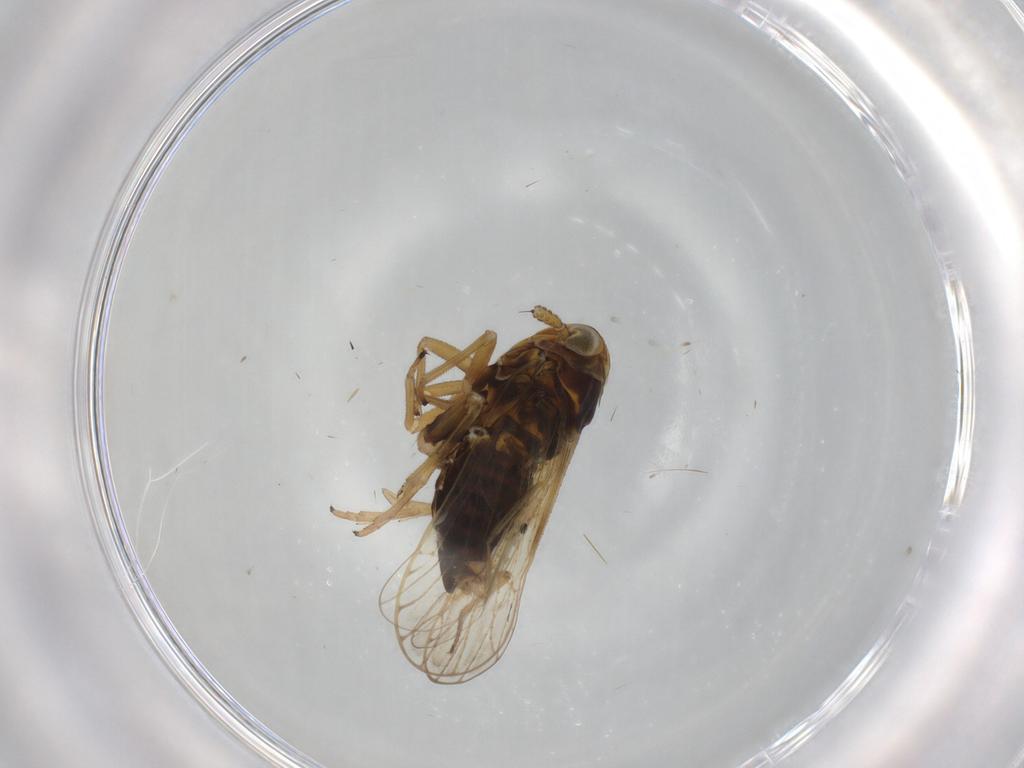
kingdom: Animalia
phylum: Arthropoda
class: Insecta
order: Hemiptera
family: Delphacidae
